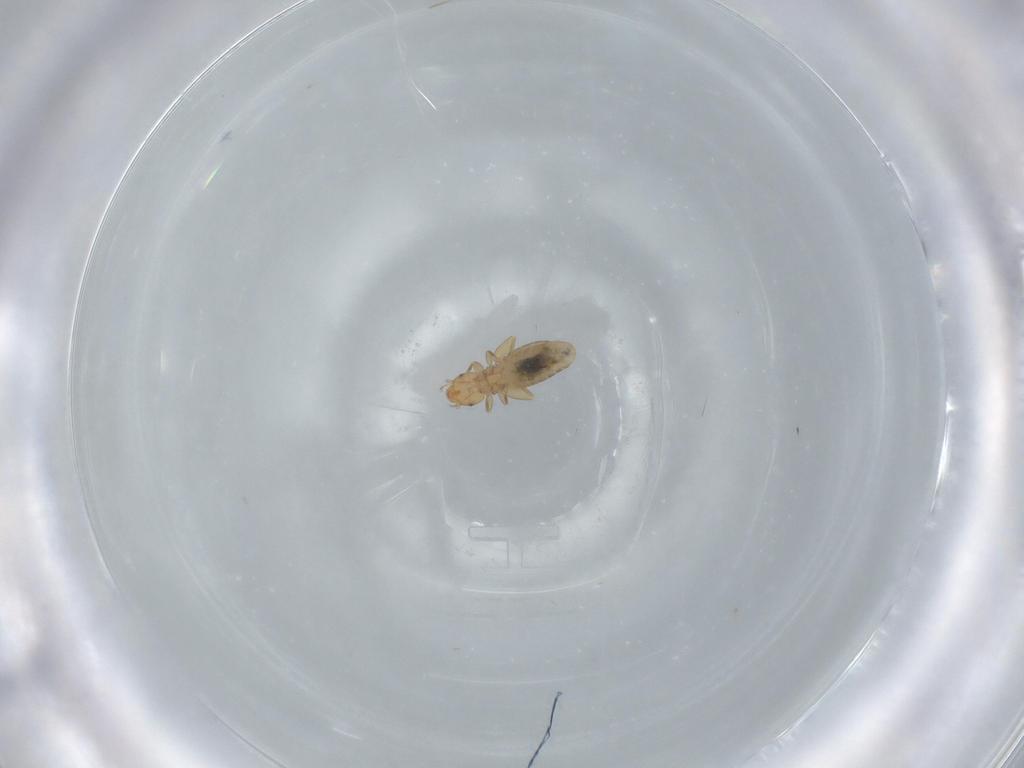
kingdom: Animalia
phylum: Arthropoda
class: Insecta
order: Psocodea
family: Liposcelididae
